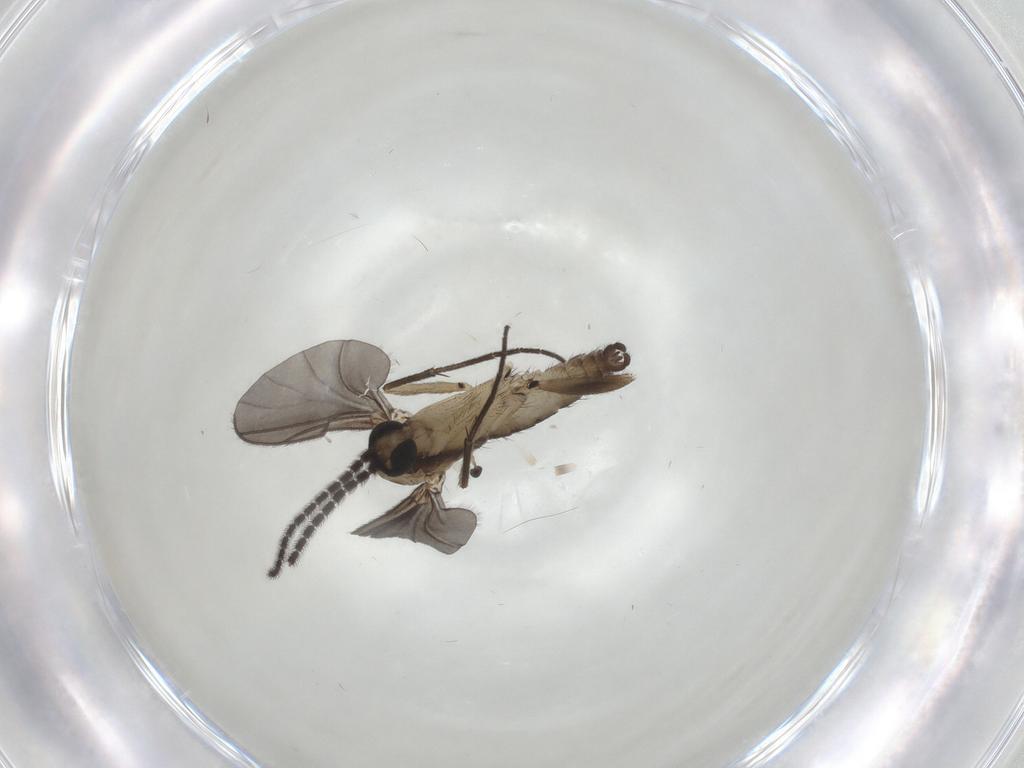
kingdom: Animalia
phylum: Arthropoda
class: Insecta
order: Diptera
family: Sciaridae
